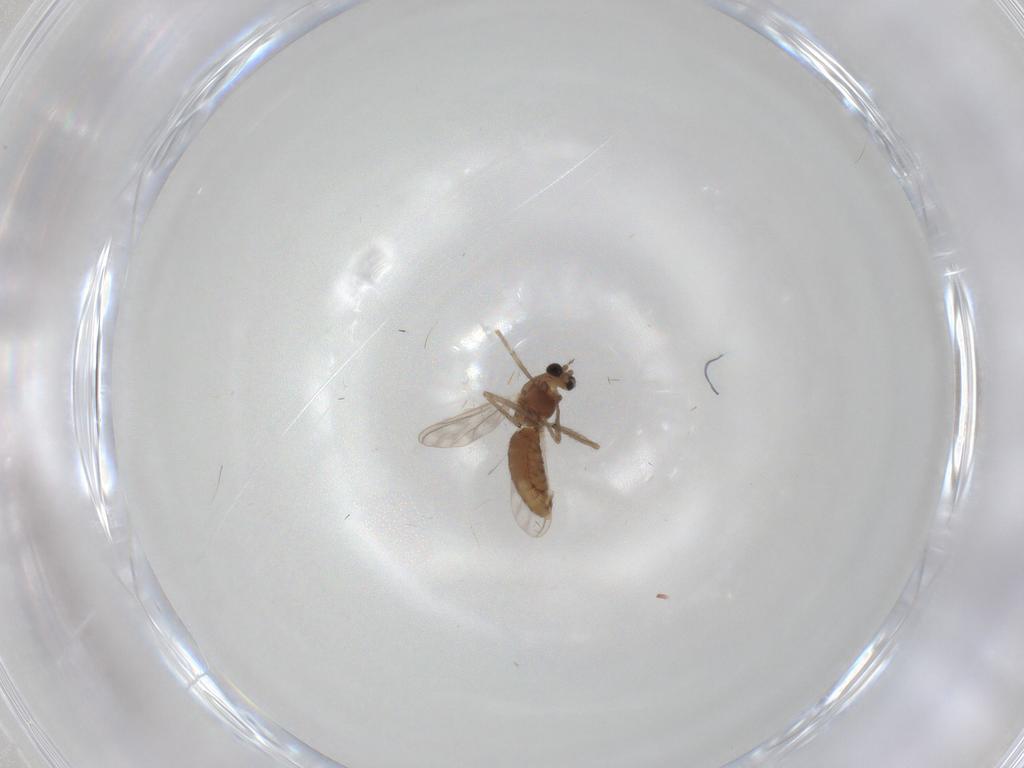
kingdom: Animalia
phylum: Arthropoda
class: Insecta
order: Diptera
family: Chironomidae
